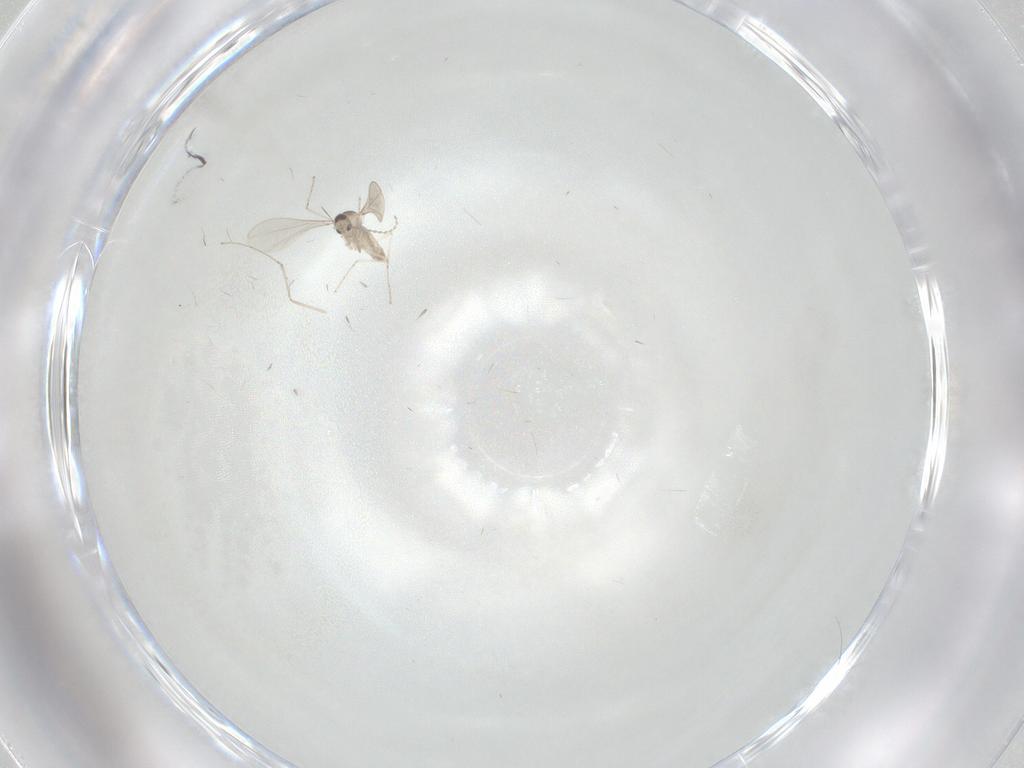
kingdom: Animalia
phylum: Arthropoda
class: Insecta
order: Diptera
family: Cecidomyiidae
